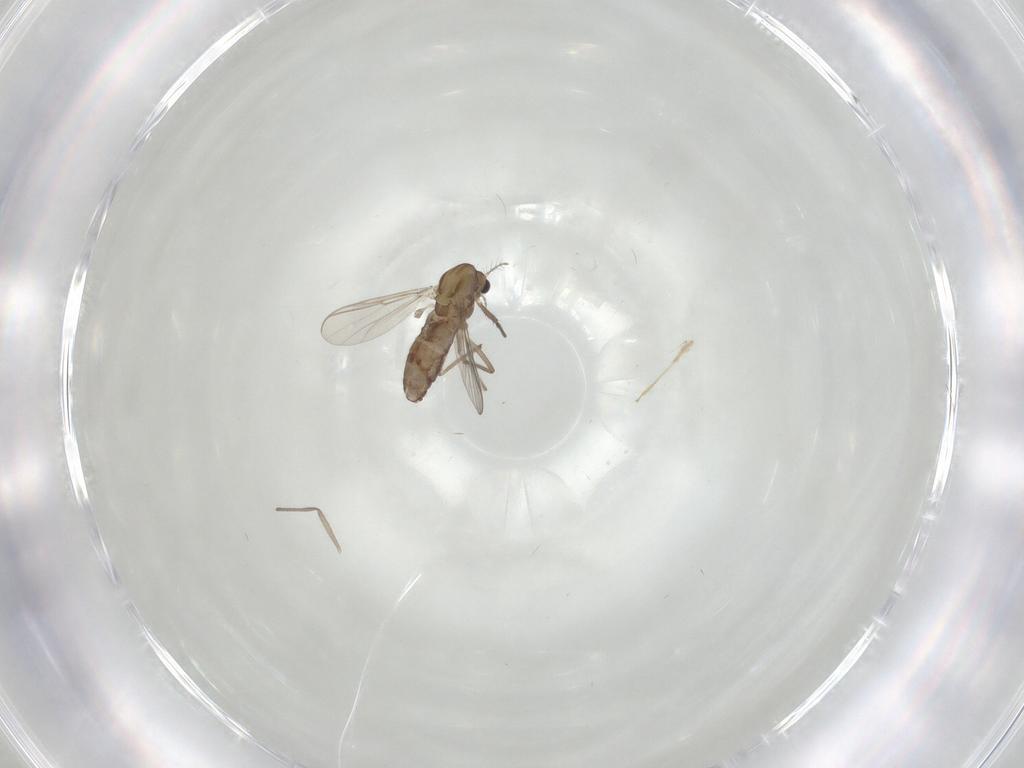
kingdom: Animalia
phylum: Arthropoda
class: Insecta
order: Diptera
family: Chironomidae
